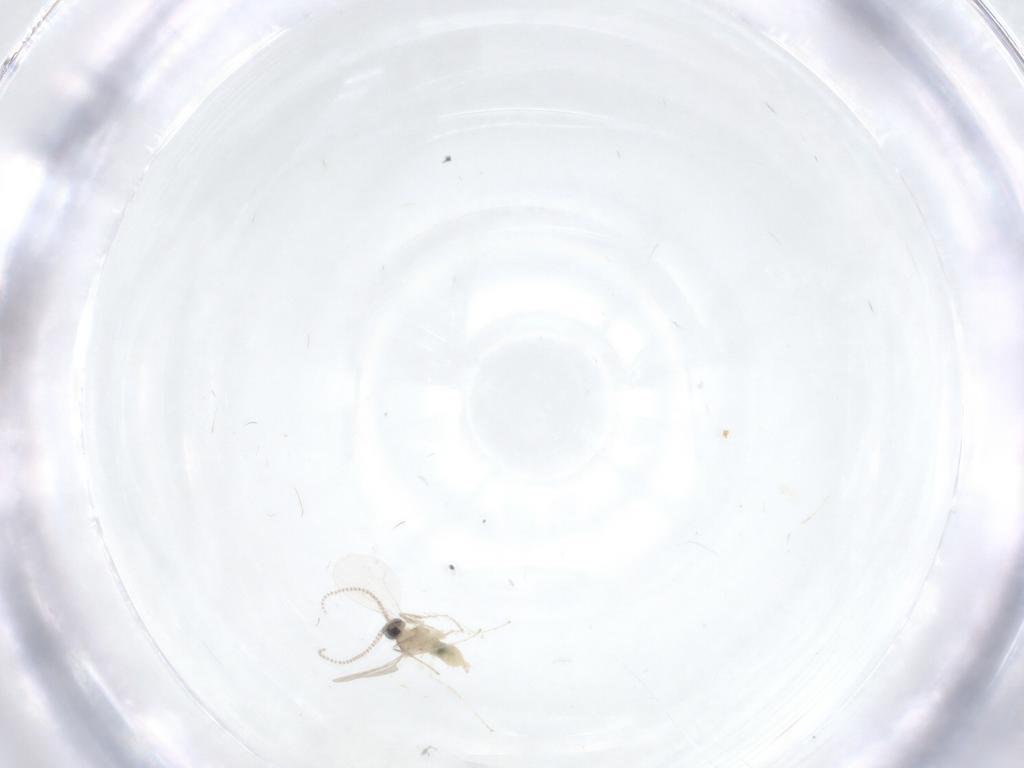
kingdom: Animalia
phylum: Arthropoda
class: Insecta
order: Diptera
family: Cecidomyiidae
